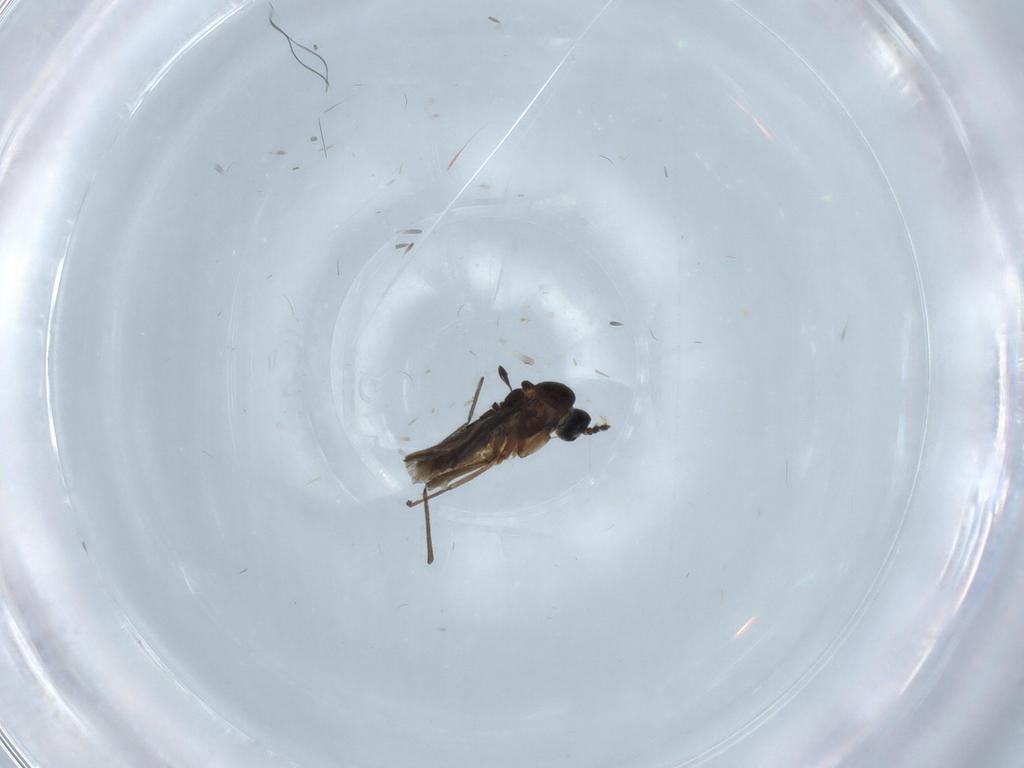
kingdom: Animalia
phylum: Arthropoda
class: Insecta
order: Diptera
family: Sciaridae
